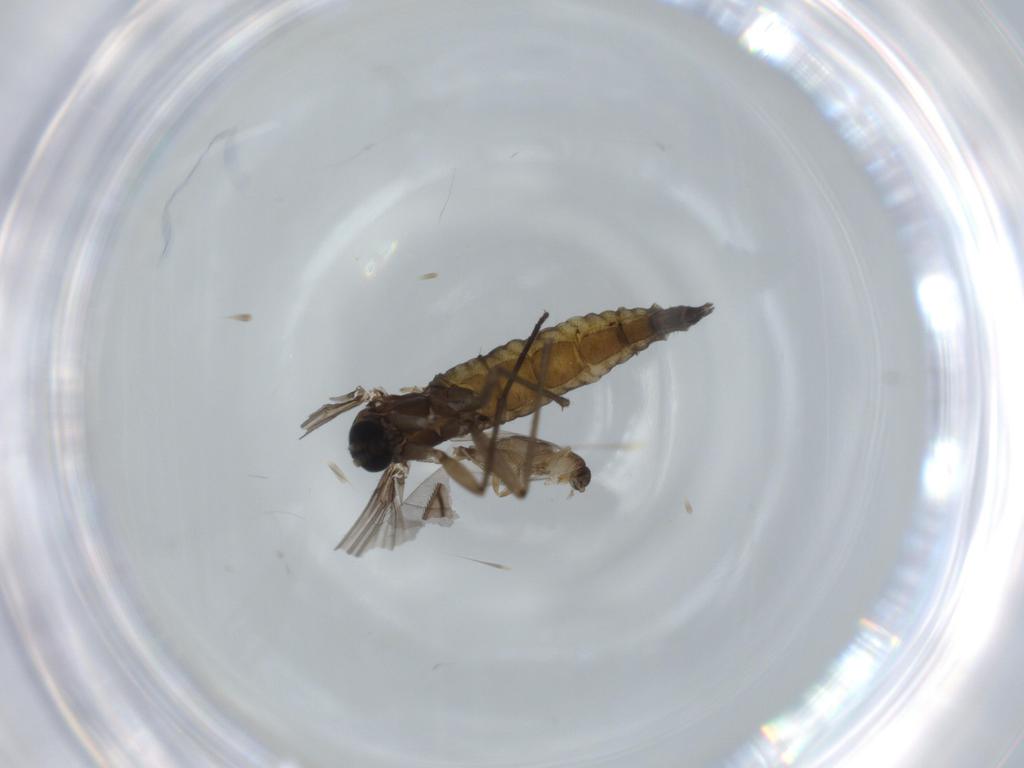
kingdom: Animalia
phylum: Arthropoda
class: Insecta
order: Diptera
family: Sciaridae
